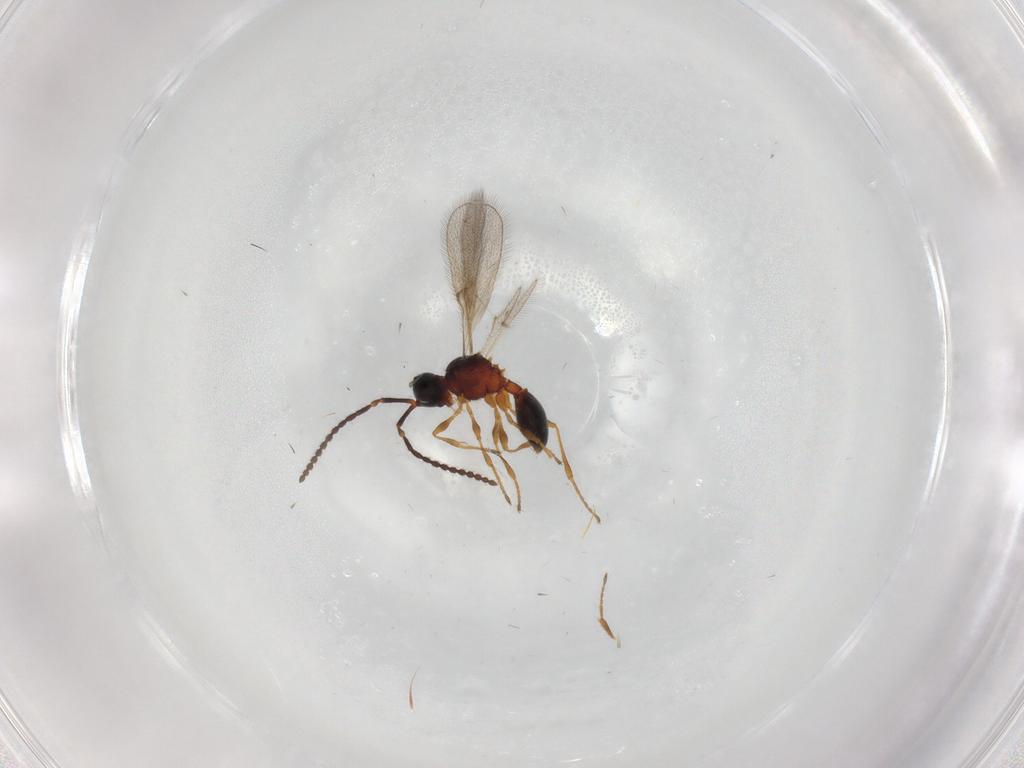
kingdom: Animalia
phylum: Arthropoda
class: Insecta
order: Hymenoptera
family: Diapriidae
